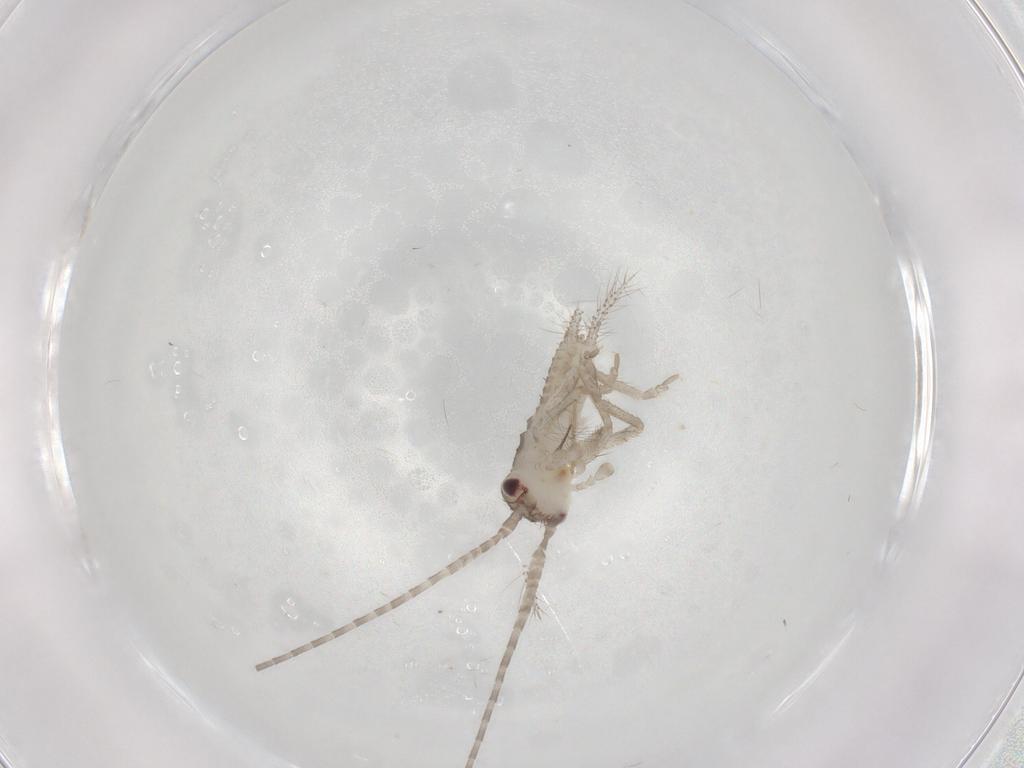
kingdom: Animalia
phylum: Arthropoda
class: Insecta
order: Orthoptera
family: Gryllidae
